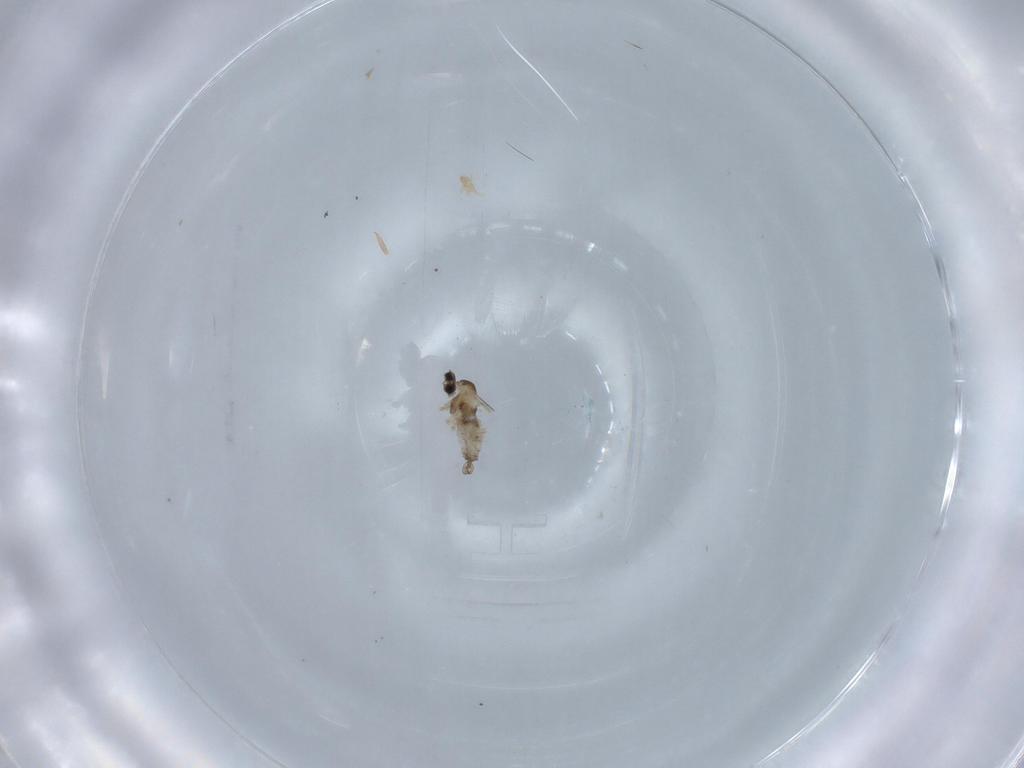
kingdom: Animalia
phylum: Arthropoda
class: Insecta
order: Diptera
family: Cecidomyiidae
